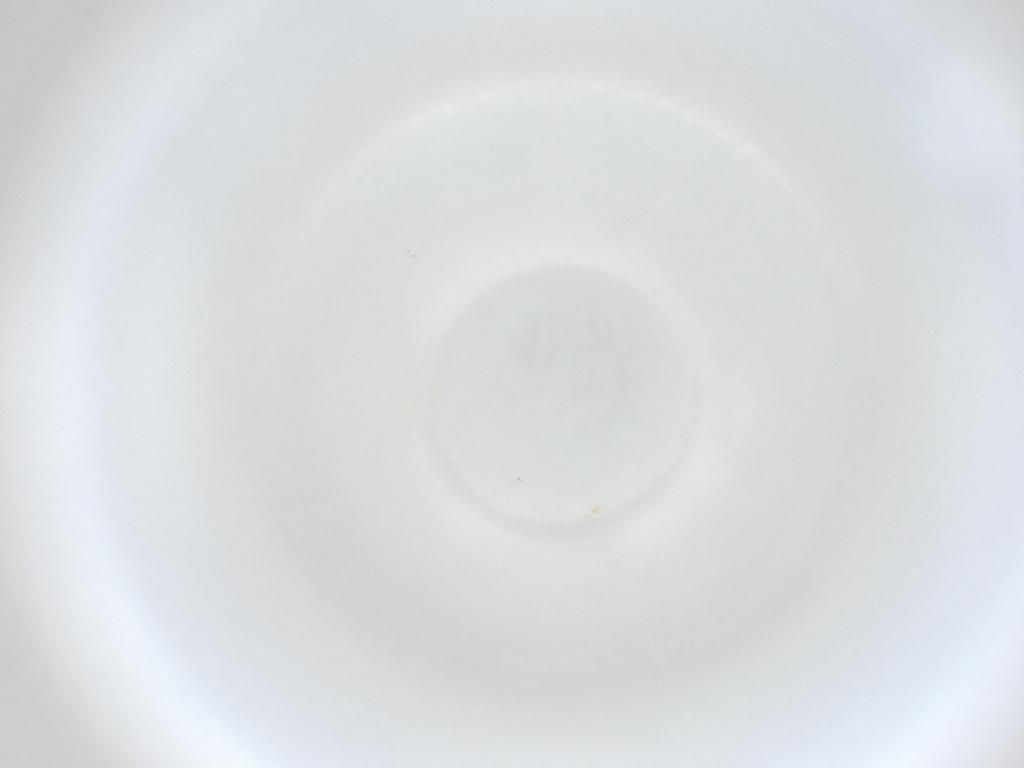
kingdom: Animalia
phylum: Arthropoda
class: Insecta
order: Diptera
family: Cecidomyiidae
